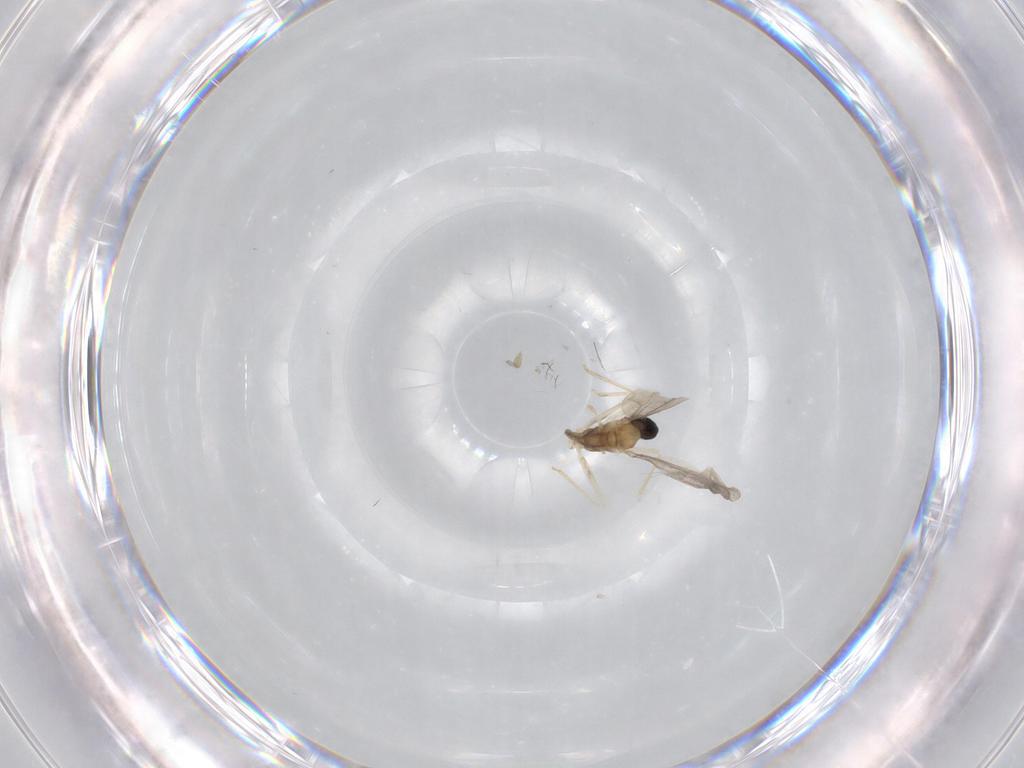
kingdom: Animalia
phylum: Arthropoda
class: Insecta
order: Diptera
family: Cecidomyiidae
